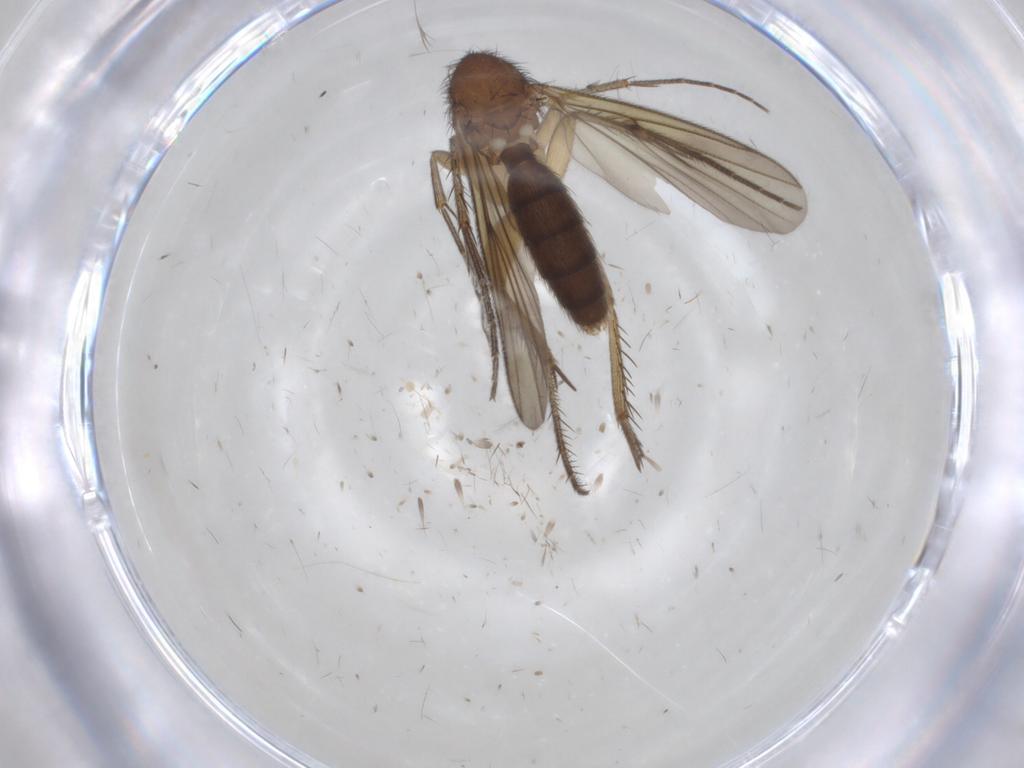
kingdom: Animalia
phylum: Arthropoda
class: Insecta
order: Diptera
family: Phoridae
